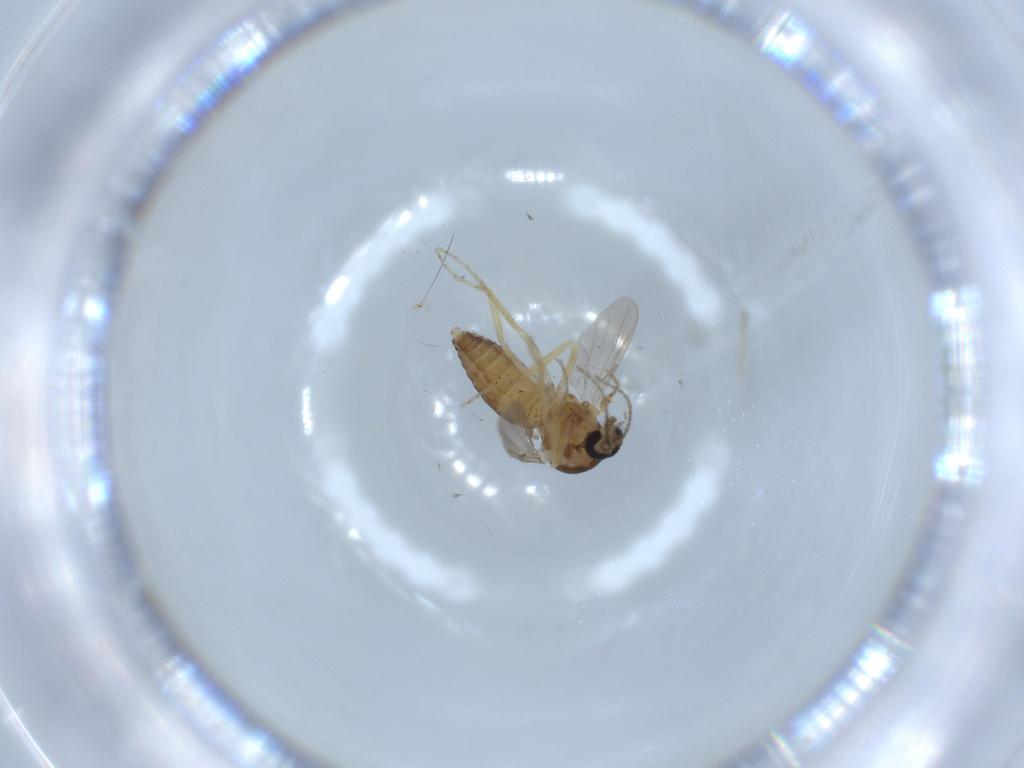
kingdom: Animalia
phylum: Arthropoda
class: Insecta
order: Diptera
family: Ceratopogonidae
